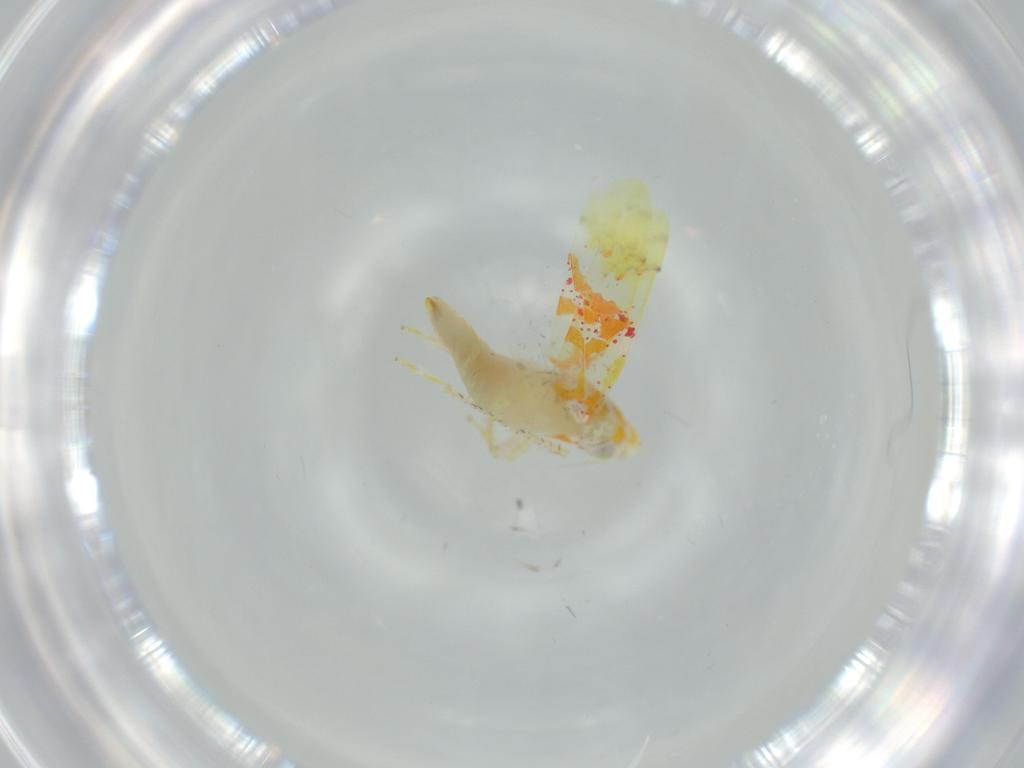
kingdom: Animalia
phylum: Arthropoda
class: Insecta
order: Hemiptera
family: Cicadellidae
